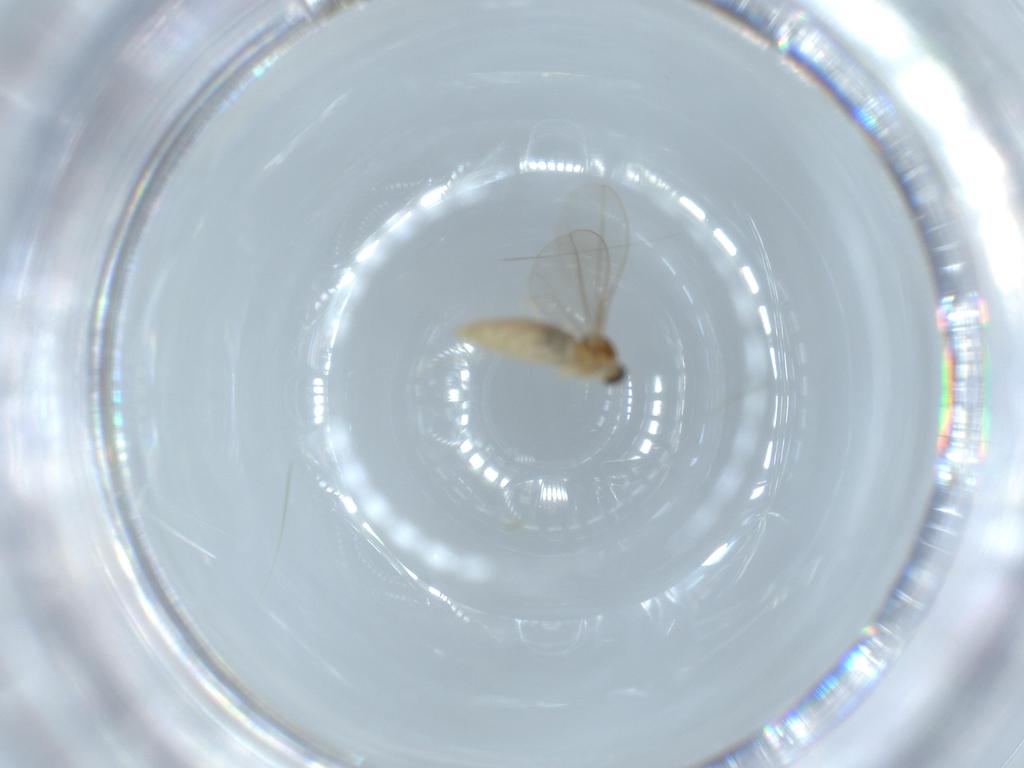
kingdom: Animalia
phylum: Arthropoda
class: Insecta
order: Diptera
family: Cecidomyiidae
